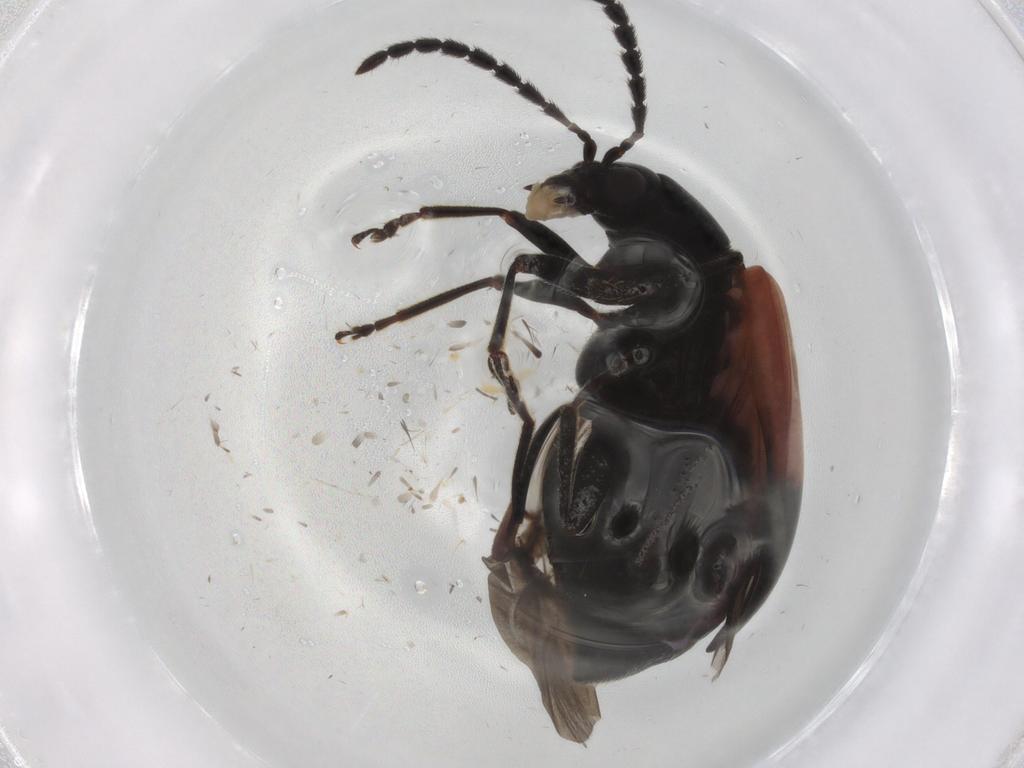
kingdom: Animalia
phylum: Arthropoda
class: Insecta
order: Coleoptera
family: Chrysomelidae
